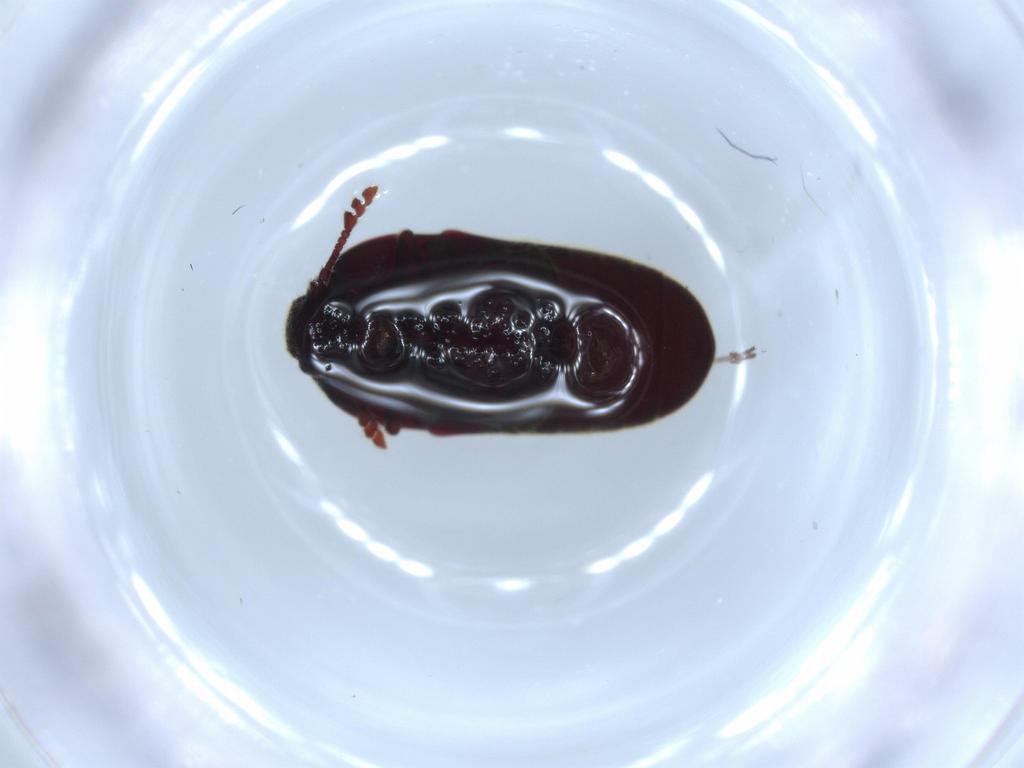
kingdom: Animalia
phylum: Arthropoda
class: Insecta
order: Coleoptera
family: Throscidae
